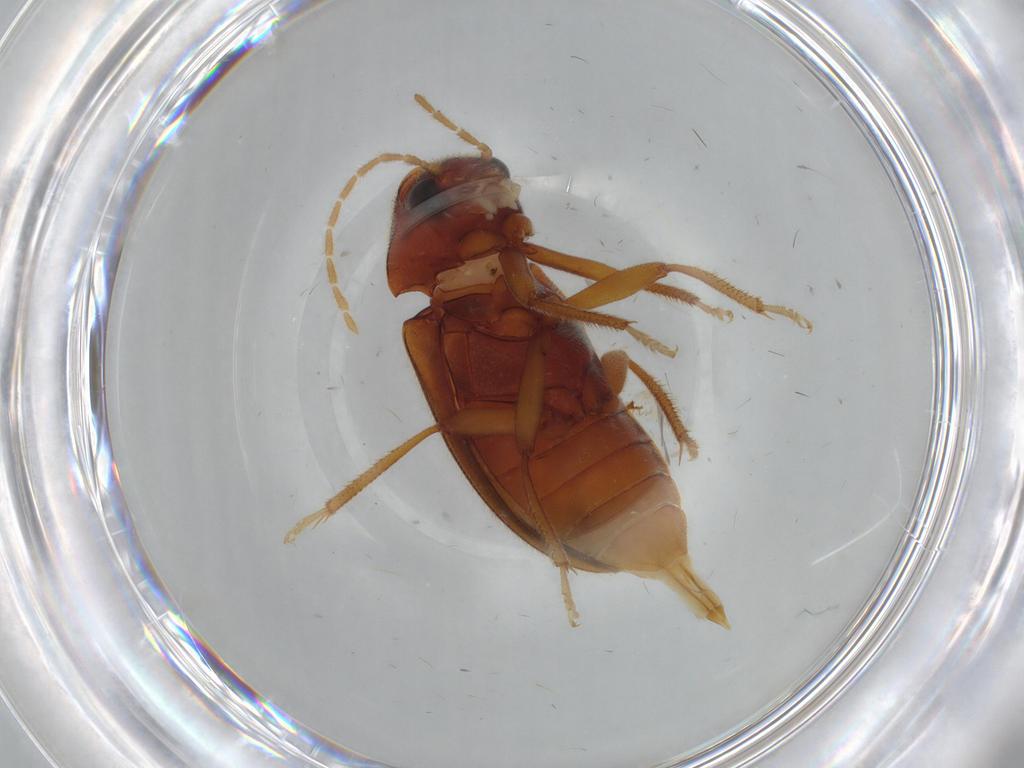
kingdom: Animalia
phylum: Arthropoda
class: Insecta
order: Coleoptera
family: Ptilodactylidae
